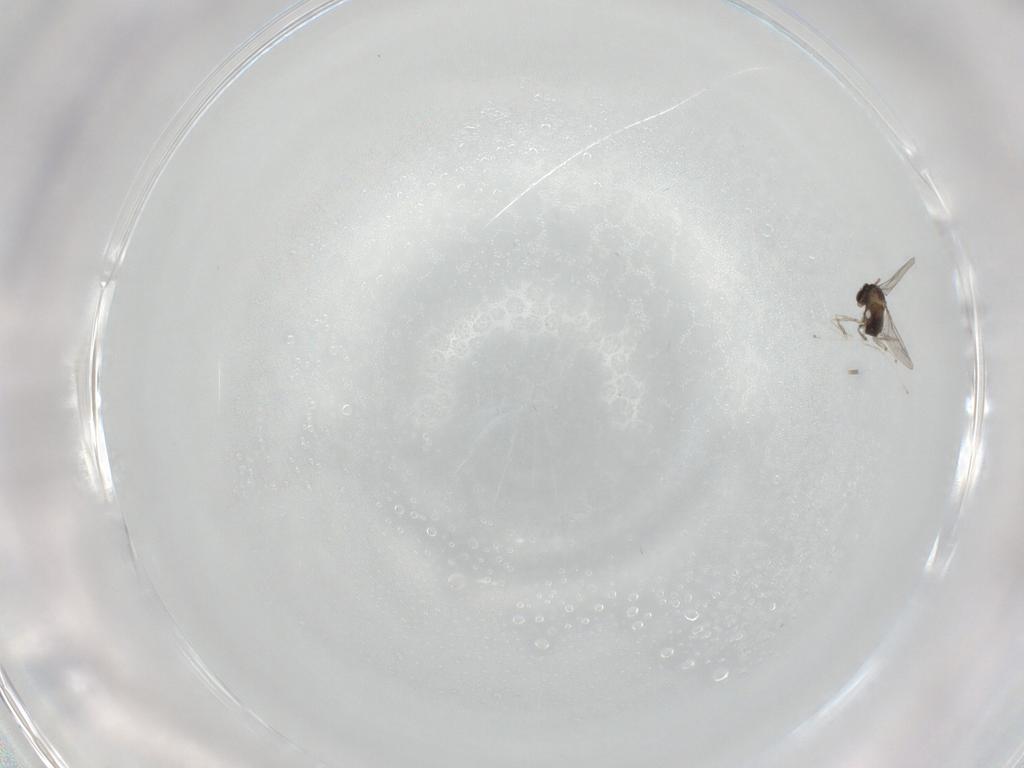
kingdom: Animalia
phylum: Arthropoda
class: Insecta
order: Diptera
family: Cecidomyiidae
